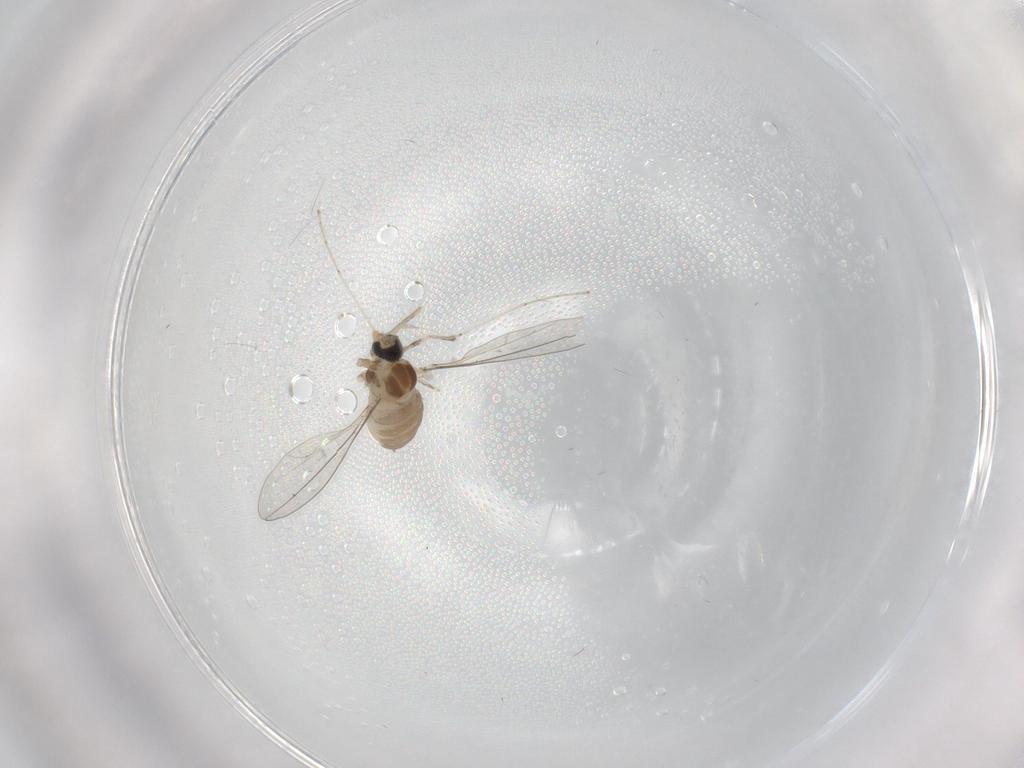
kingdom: Animalia
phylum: Arthropoda
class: Insecta
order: Diptera
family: Cecidomyiidae
